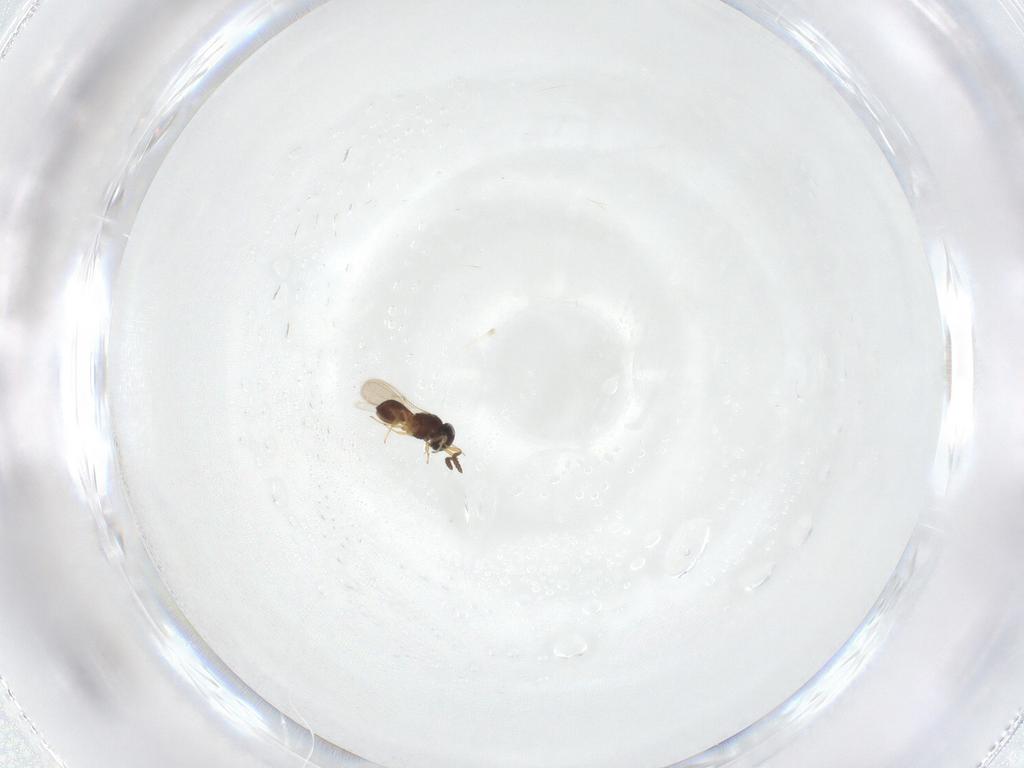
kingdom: Animalia
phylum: Arthropoda
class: Insecta
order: Hymenoptera
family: Scelionidae
